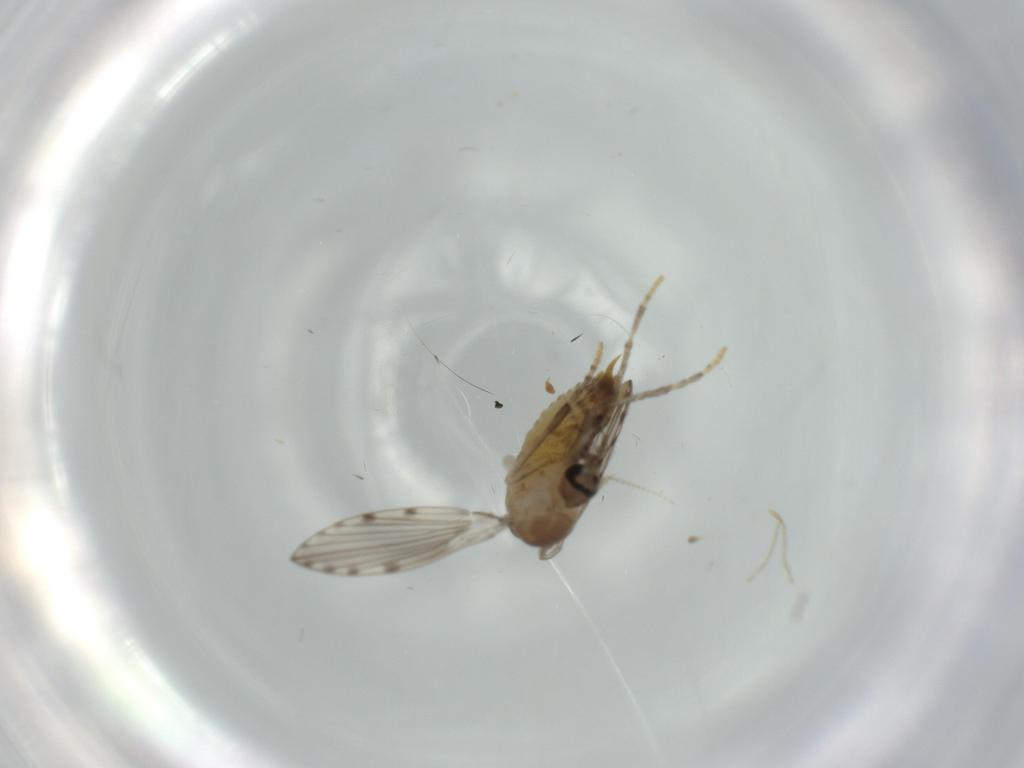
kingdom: Animalia
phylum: Arthropoda
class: Insecta
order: Diptera
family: Psychodidae
